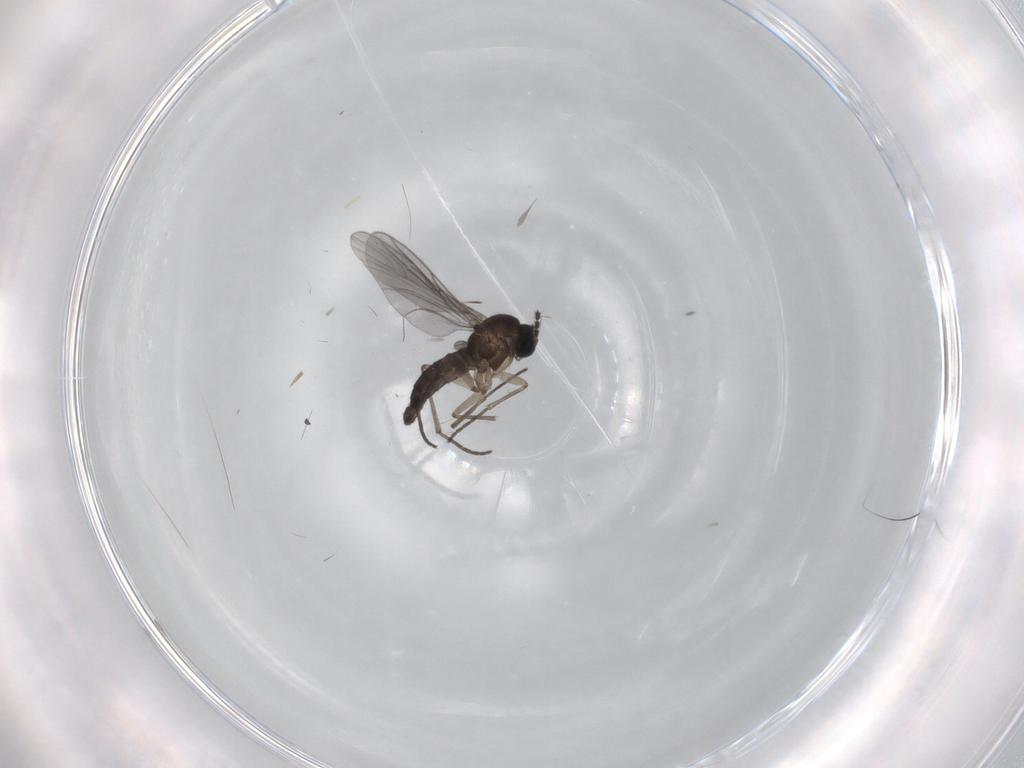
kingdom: Animalia
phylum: Arthropoda
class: Insecta
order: Diptera
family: Sciaridae
